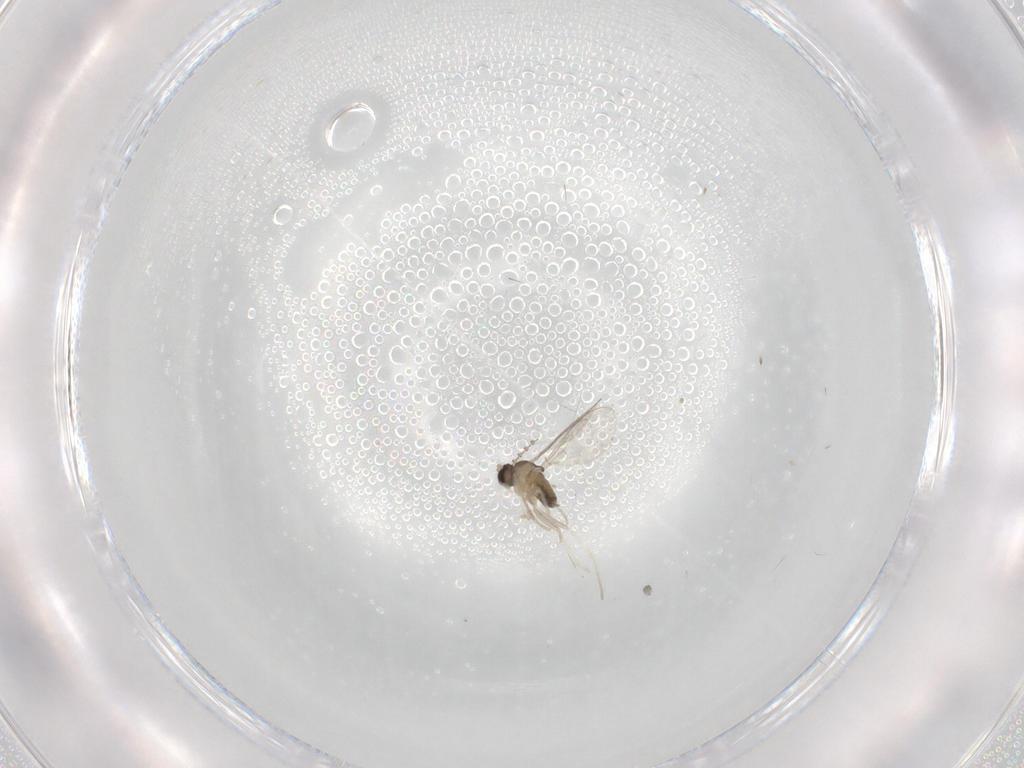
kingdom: Animalia
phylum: Arthropoda
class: Insecta
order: Diptera
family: Cecidomyiidae
